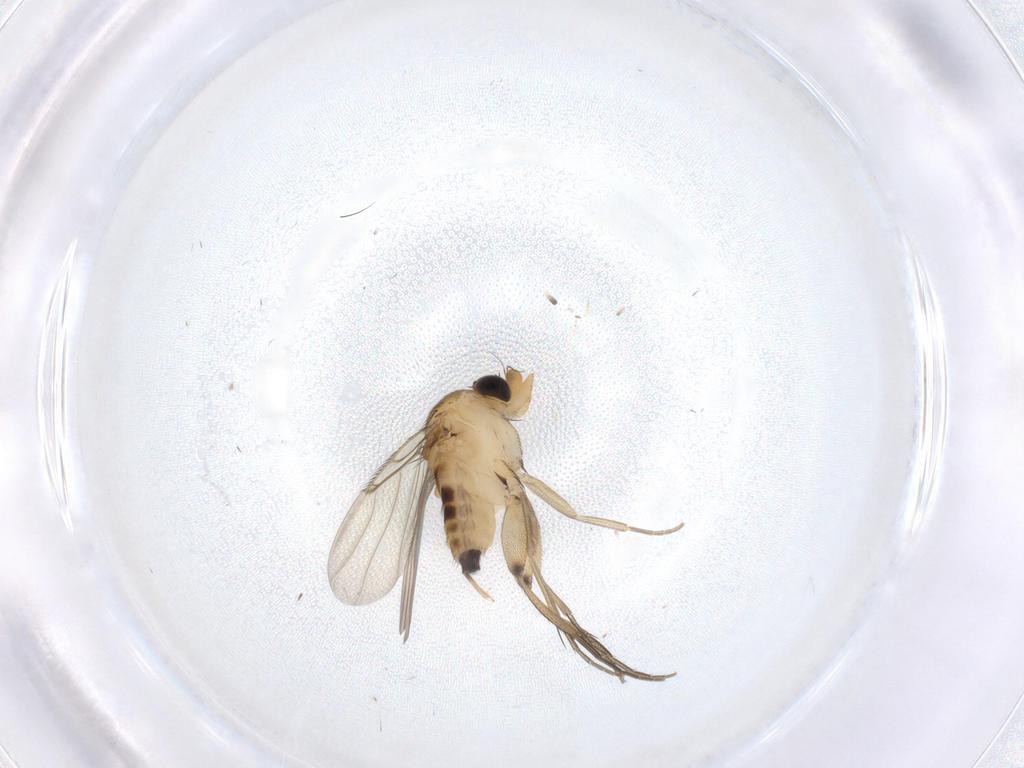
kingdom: Animalia
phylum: Arthropoda
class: Insecta
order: Diptera
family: Phoridae
